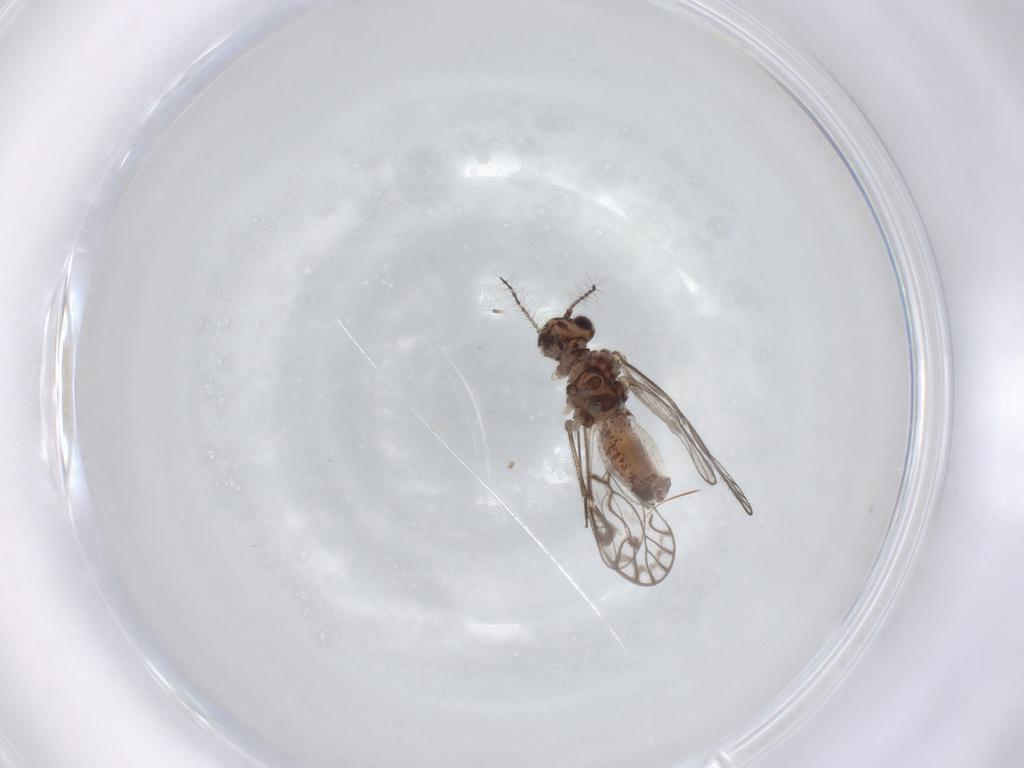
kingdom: Animalia
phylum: Arthropoda
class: Insecta
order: Psocodea
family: Psocidae
